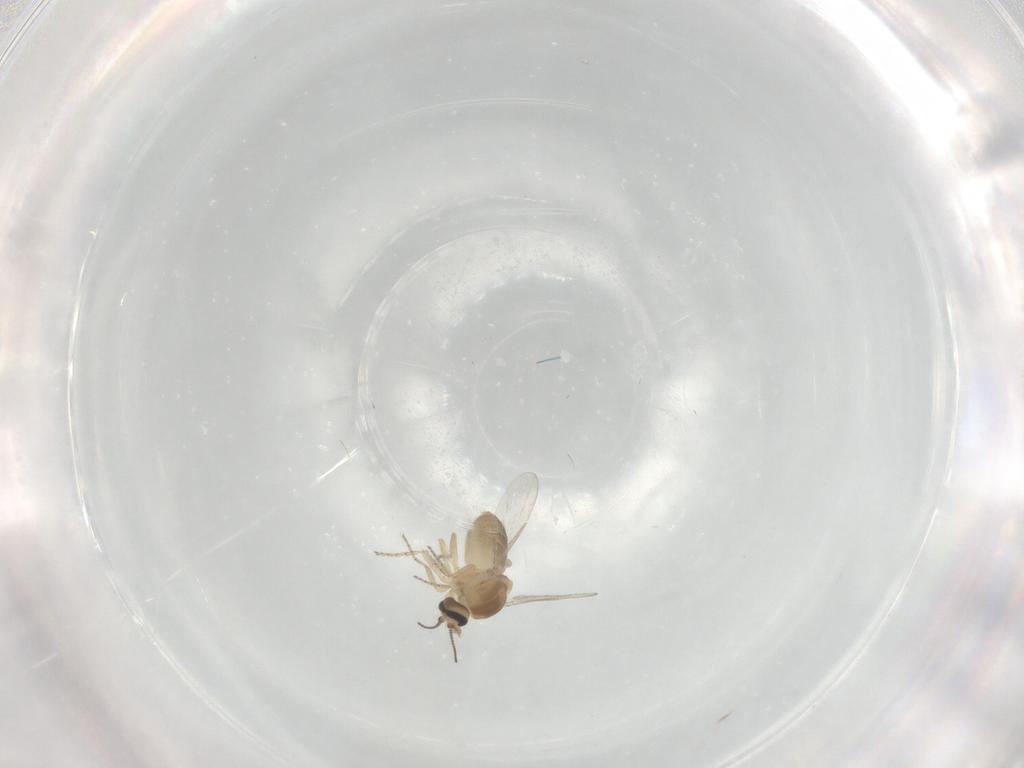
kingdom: Animalia
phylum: Arthropoda
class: Insecta
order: Diptera
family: Ceratopogonidae
